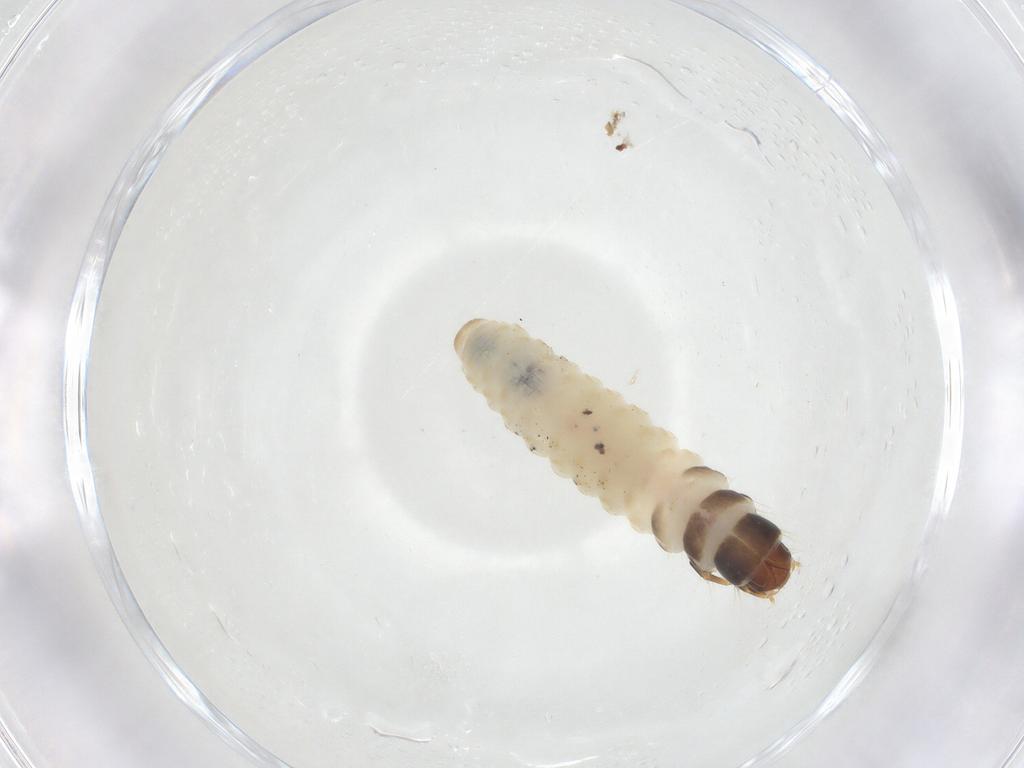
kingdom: Animalia
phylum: Arthropoda
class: Insecta
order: Lepidoptera
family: Psychidae
